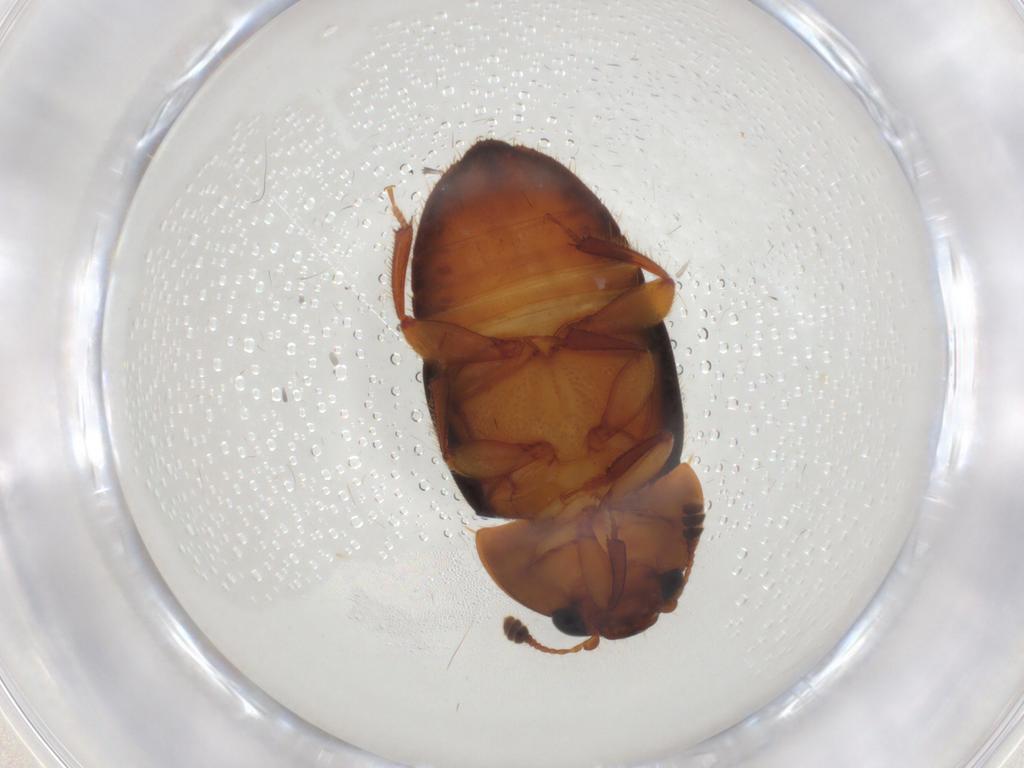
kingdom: Animalia
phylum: Arthropoda
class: Insecta
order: Coleoptera
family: Nitidulidae
